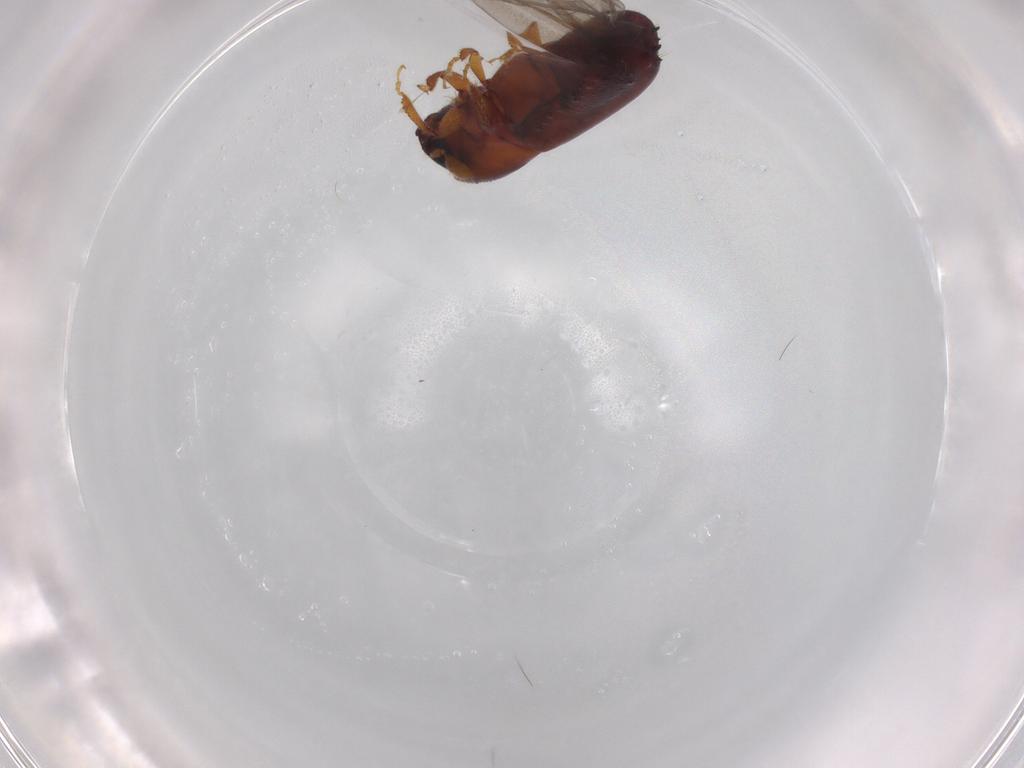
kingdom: Animalia
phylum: Arthropoda
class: Insecta
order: Coleoptera
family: Curculionidae
